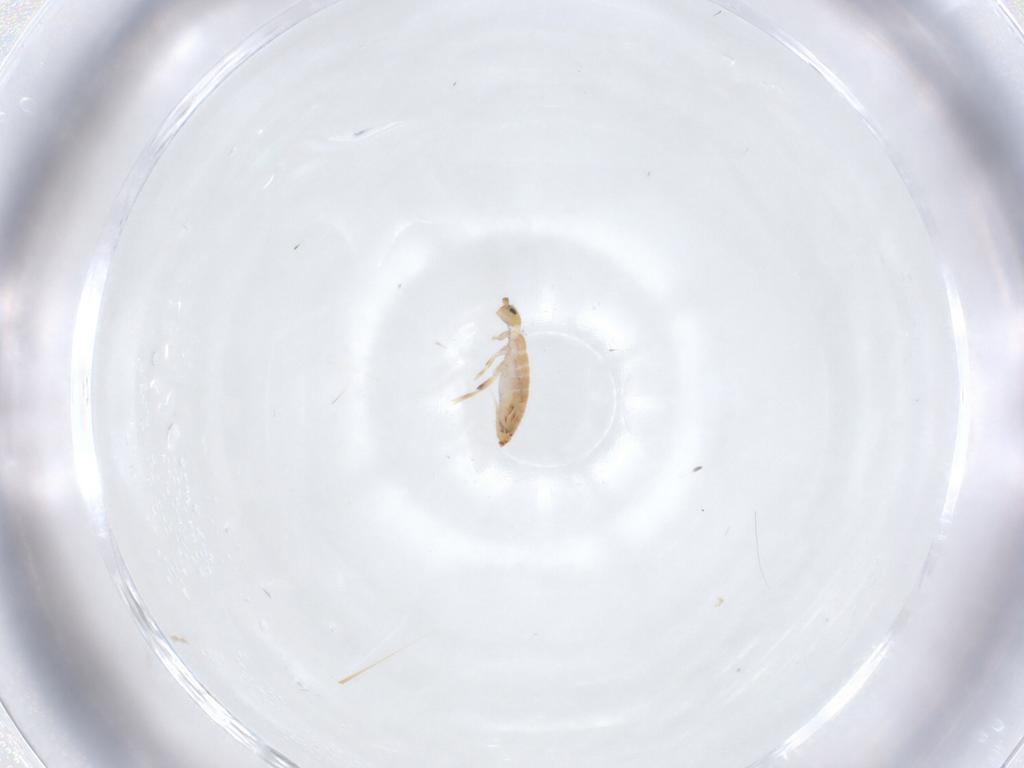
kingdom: Animalia
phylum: Arthropoda
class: Collembola
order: Entomobryomorpha
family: Entomobryidae
